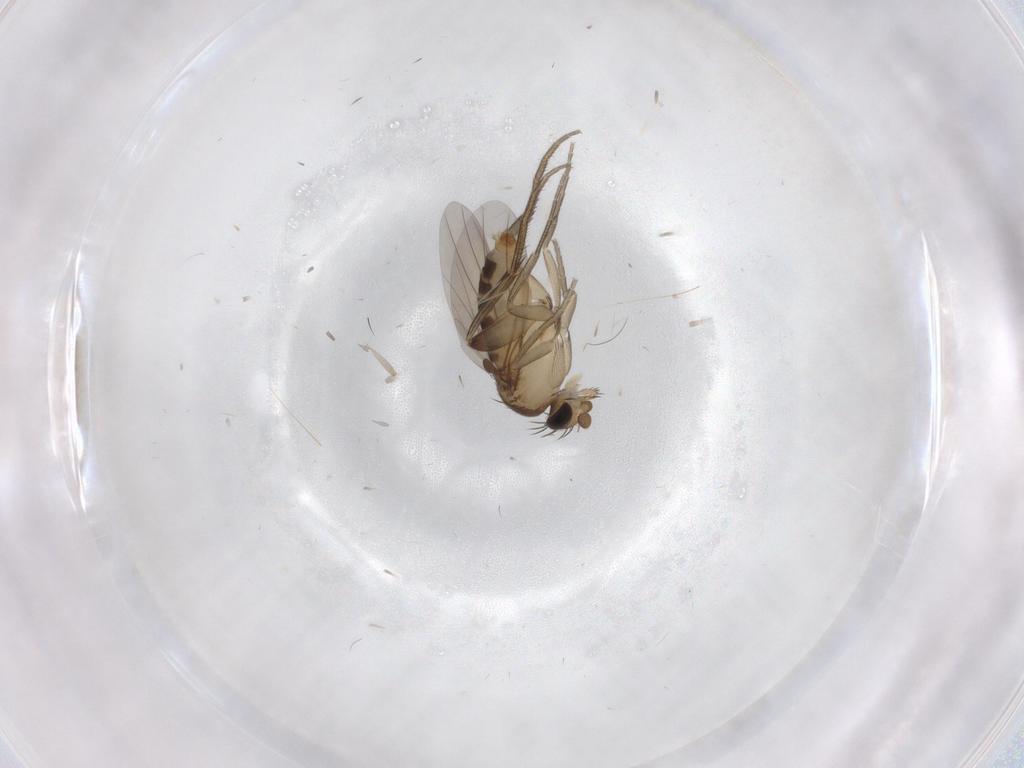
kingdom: Animalia
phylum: Arthropoda
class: Insecta
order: Diptera
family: Phoridae
